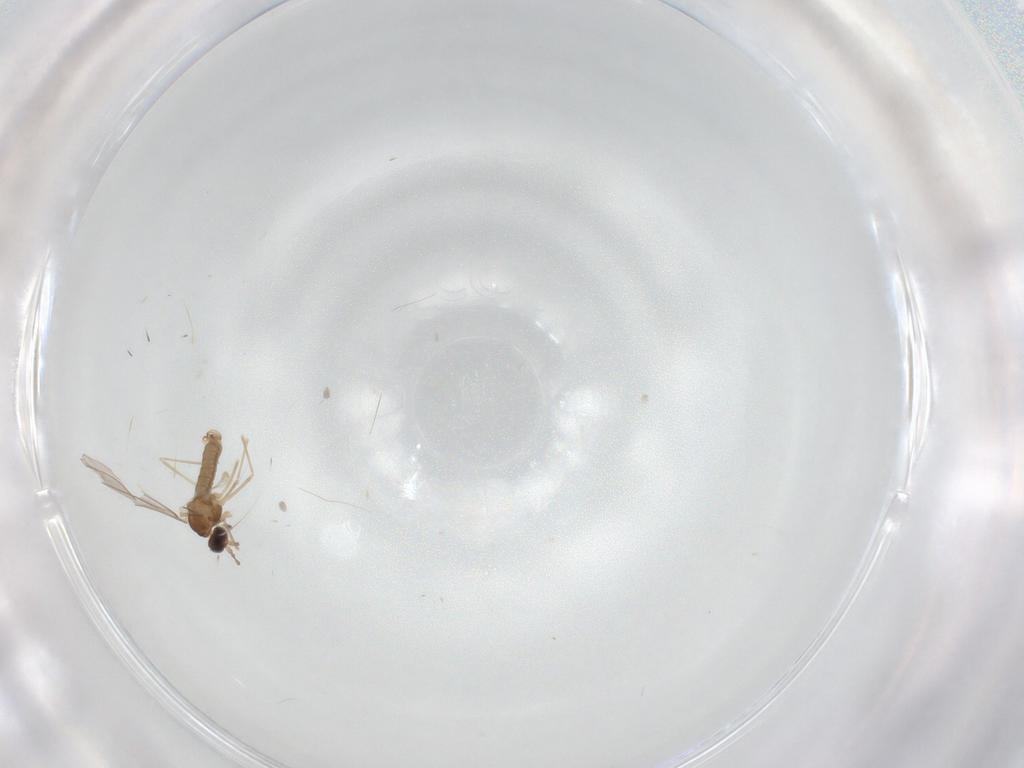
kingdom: Animalia
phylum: Arthropoda
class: Insecta
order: Diptera
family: Cecidomyiidae
